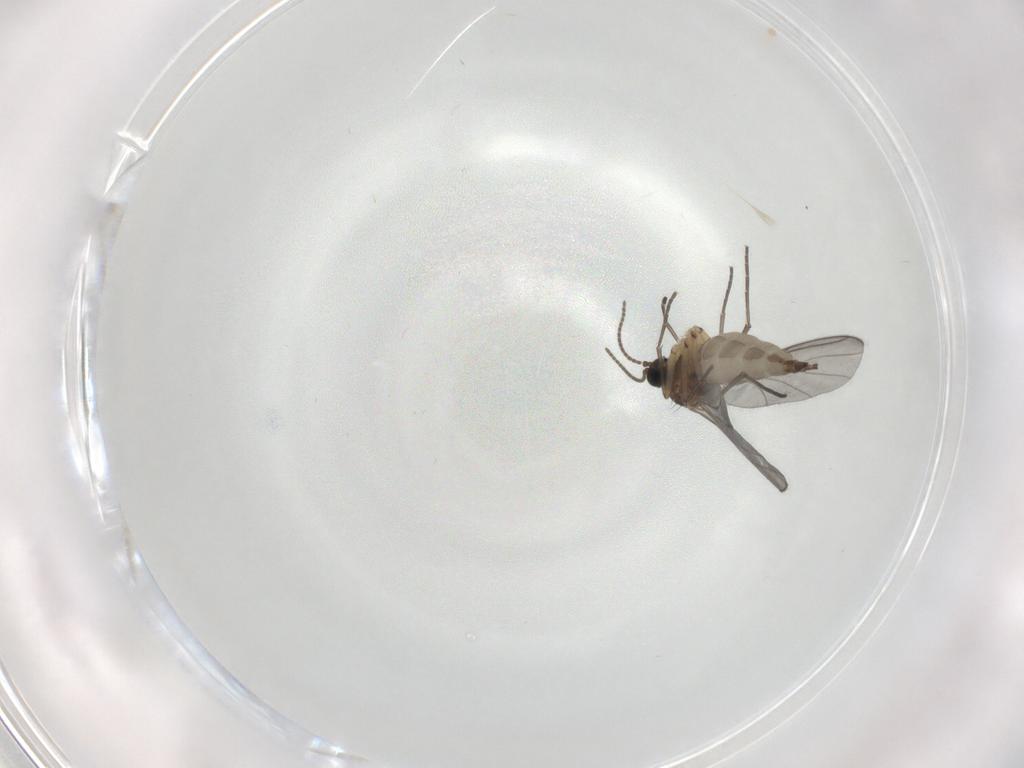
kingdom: Animalia
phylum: Arthropoda
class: Insecta
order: Diptera
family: Sciaridae
